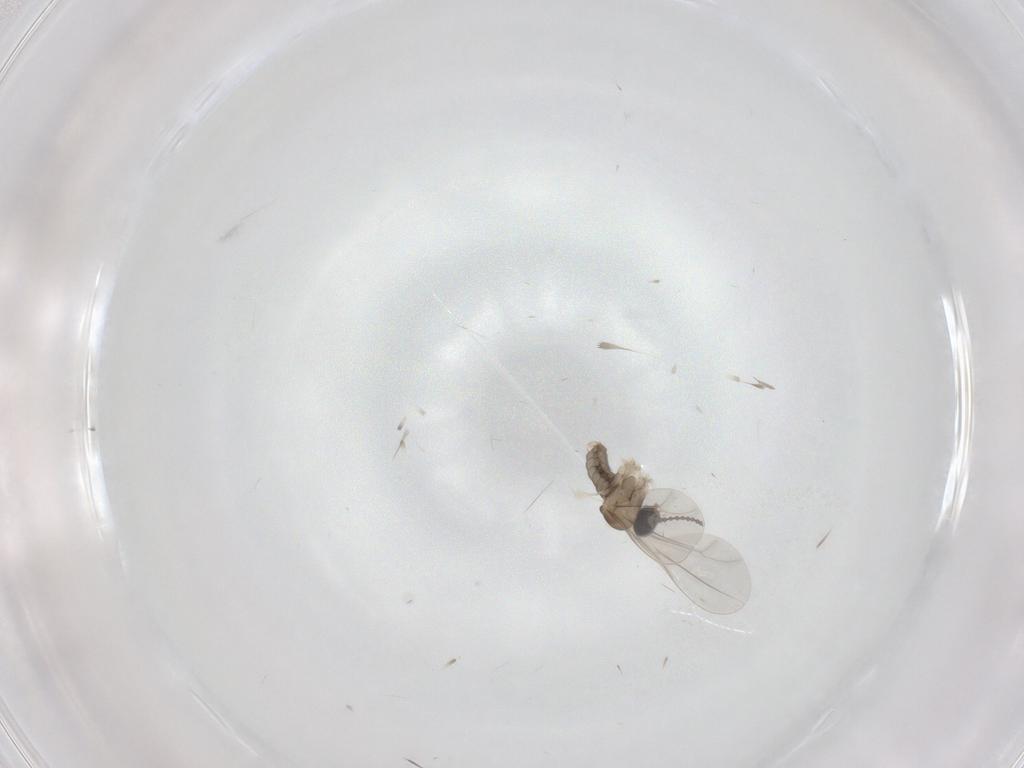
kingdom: Animalia
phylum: Arthropoda
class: Insecta
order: Diptera
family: Cecidomyiidae
